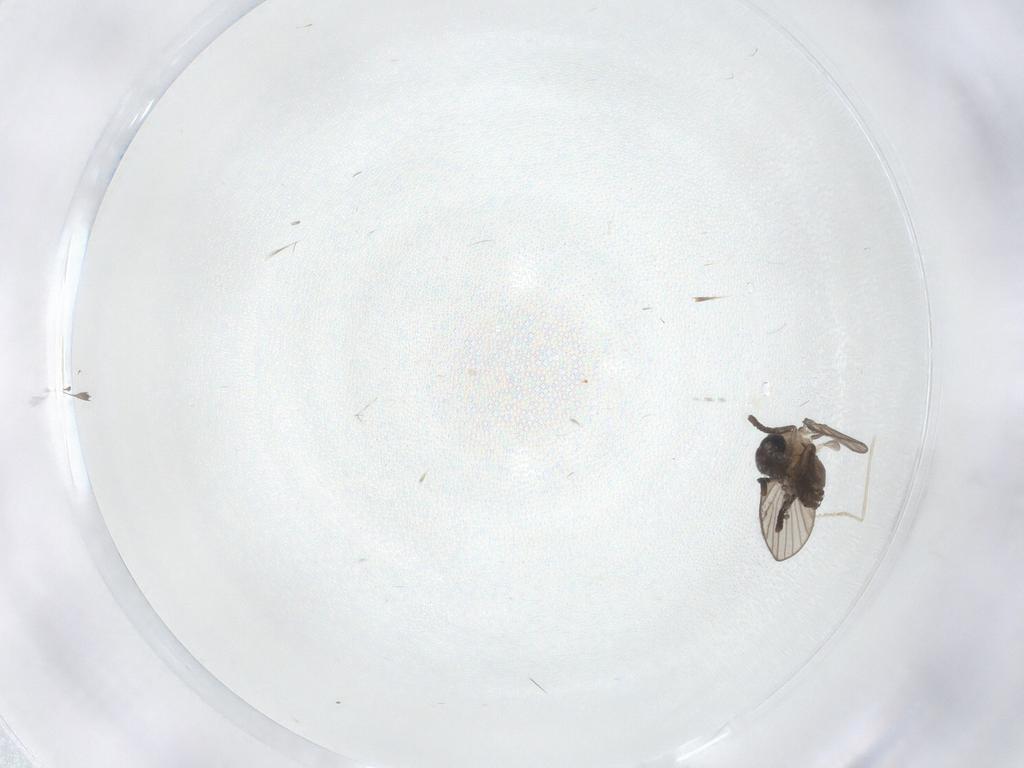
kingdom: Animalia
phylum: Arthropoda
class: Insecta
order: Diptera
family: Psychodidae
